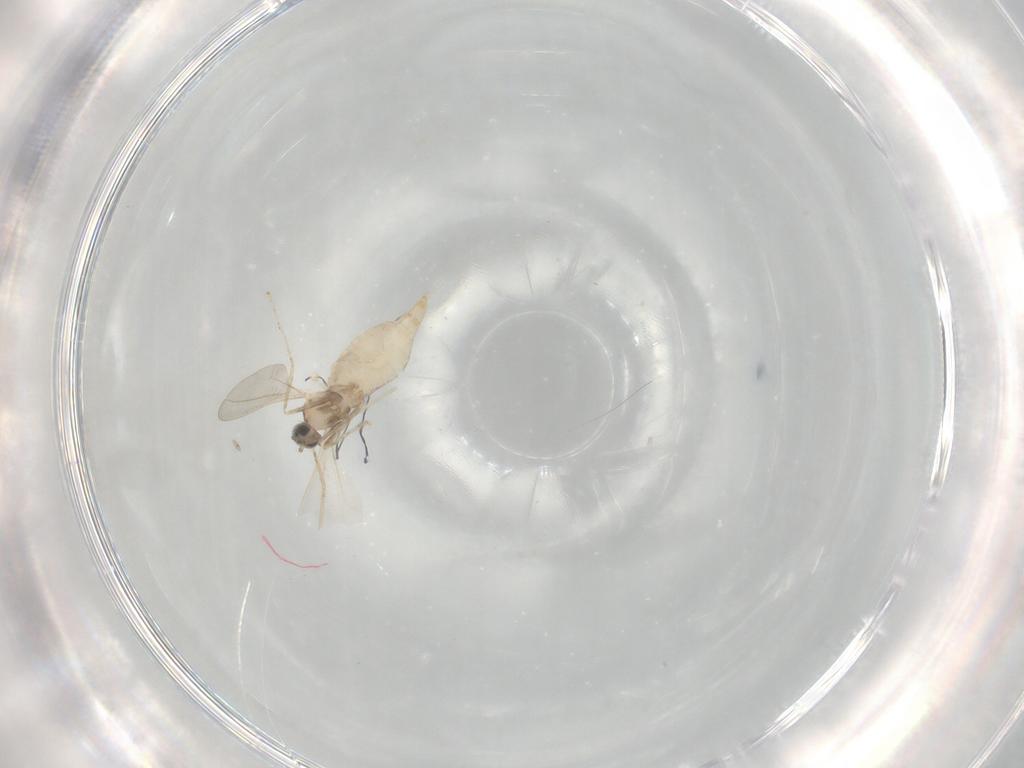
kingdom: Animalia
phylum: Arthropoda
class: Insecta
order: Diptera
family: Cecidomyiidae
